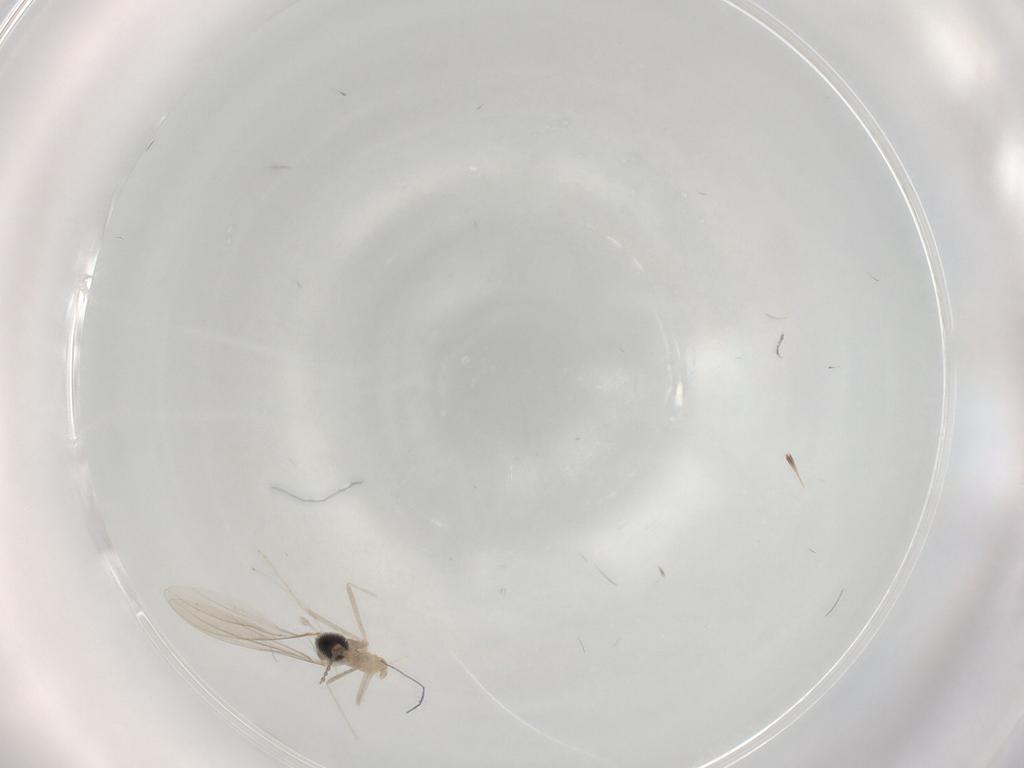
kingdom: Animalia
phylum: Arthropoda
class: Insecta
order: Diptera
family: Cecidomyiidae
